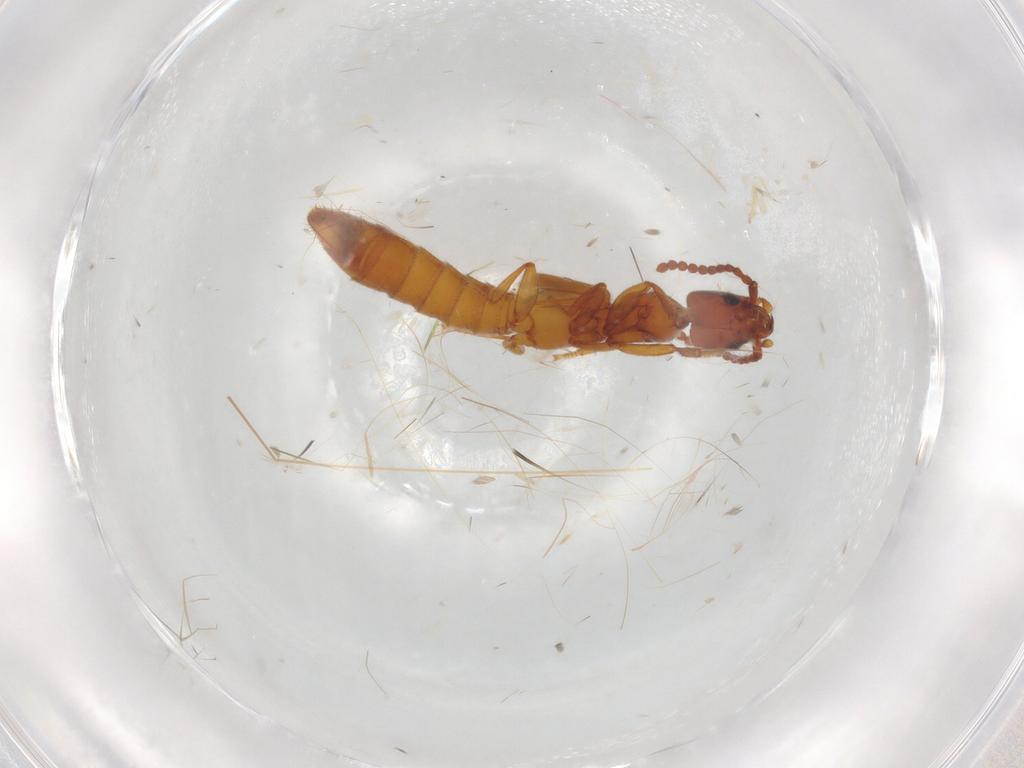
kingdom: Animalia
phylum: Arthropoda
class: Insecta
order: Coleoptera
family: Staphylinidae
